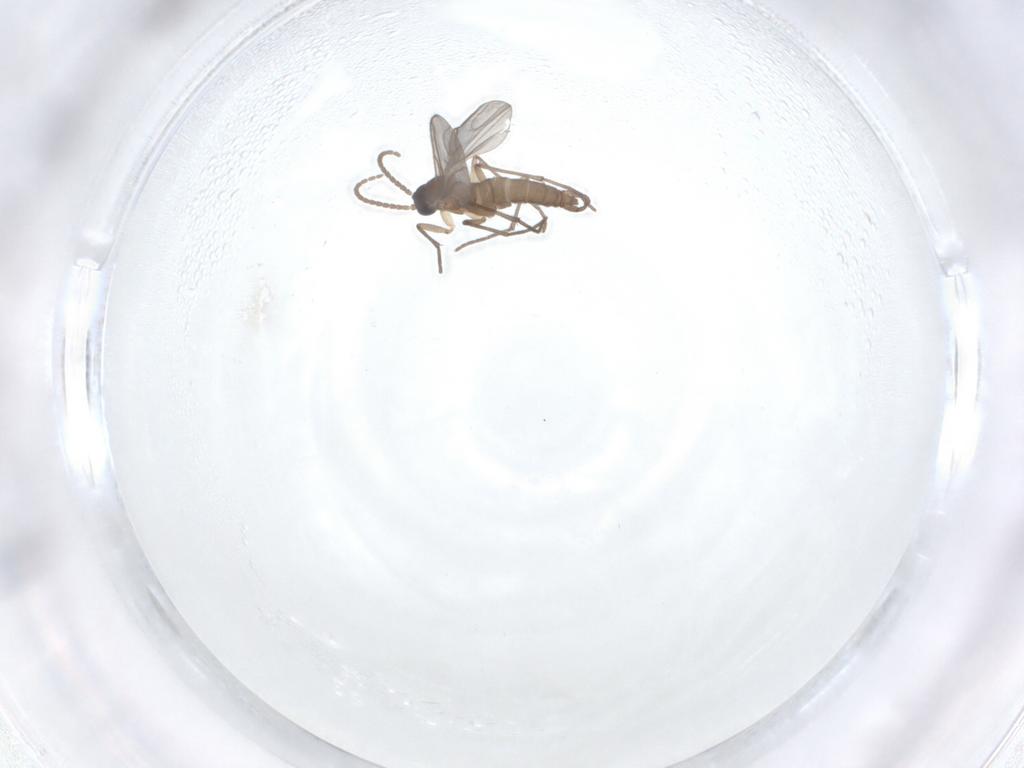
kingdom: Animalia
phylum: Arthropoda
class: Insecta
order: Diptera
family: Sciaridae
